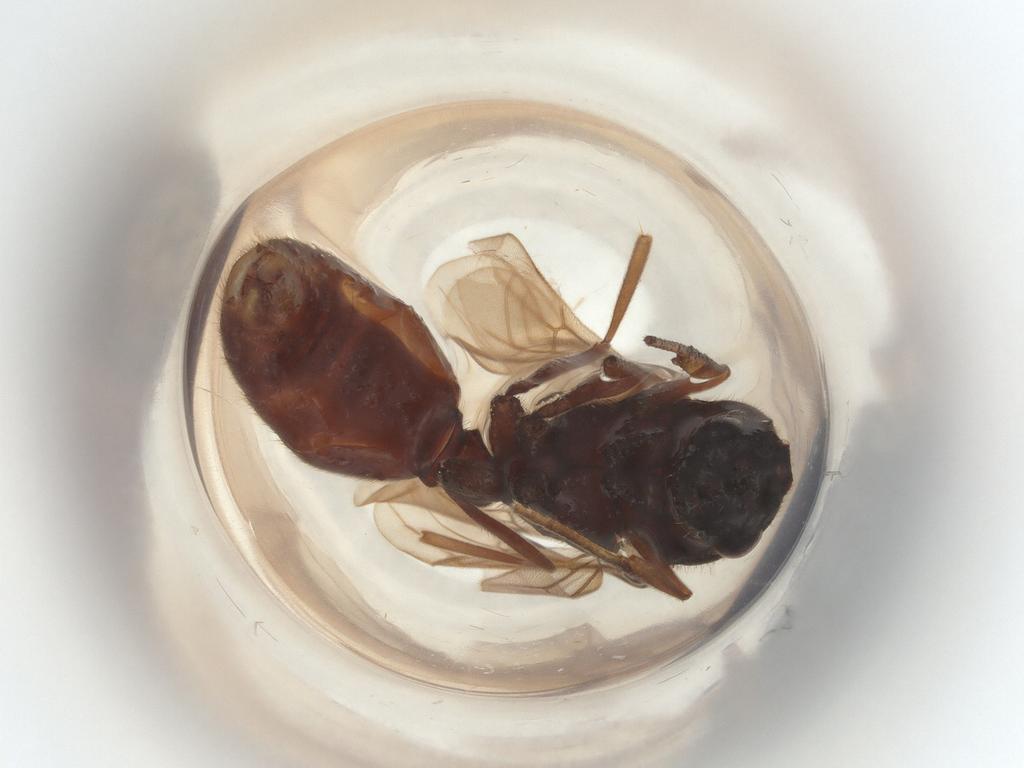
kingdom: Animalia
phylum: Arthropoda
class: Insecta
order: Hymenoptera
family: Formicidae
